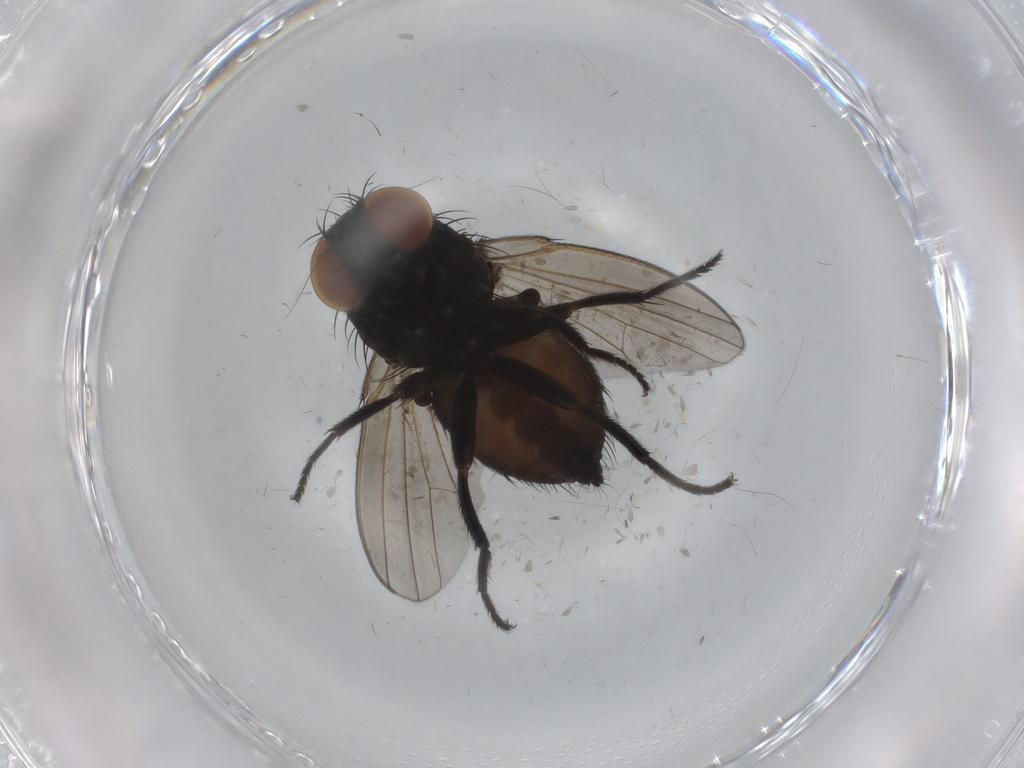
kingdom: Animalia
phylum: Arthropoda
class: Insecta
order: Diptera
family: Milichiidae
